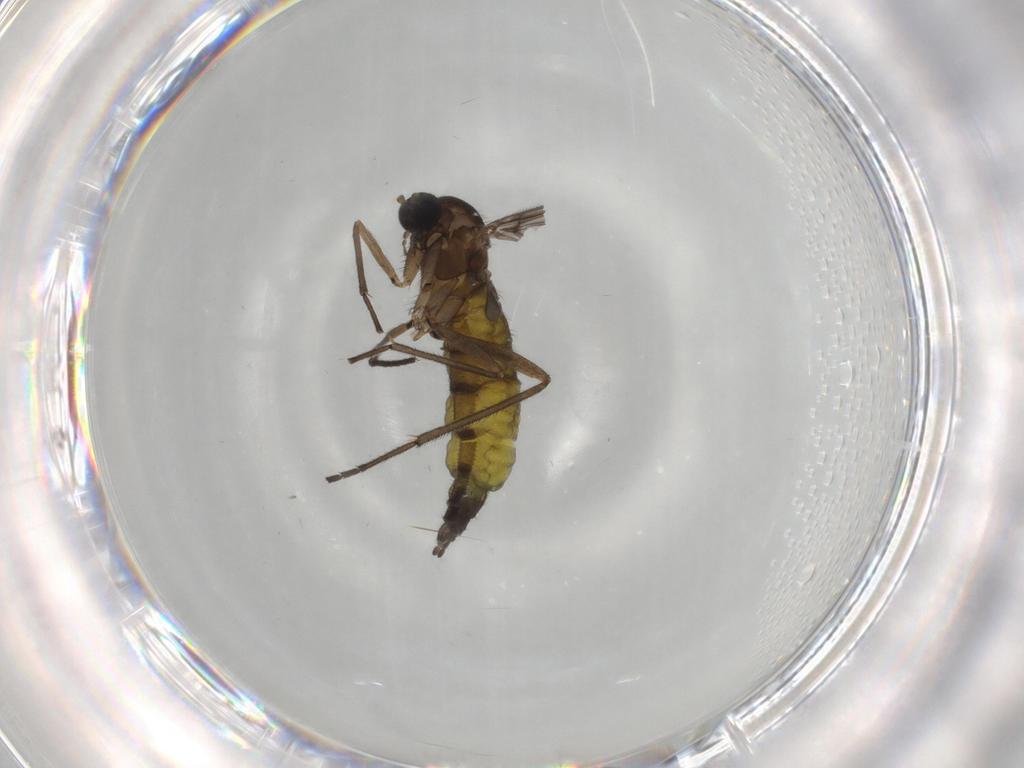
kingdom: Animalia
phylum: Arthropoda
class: Insecta
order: Diptera
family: Sciaridae
